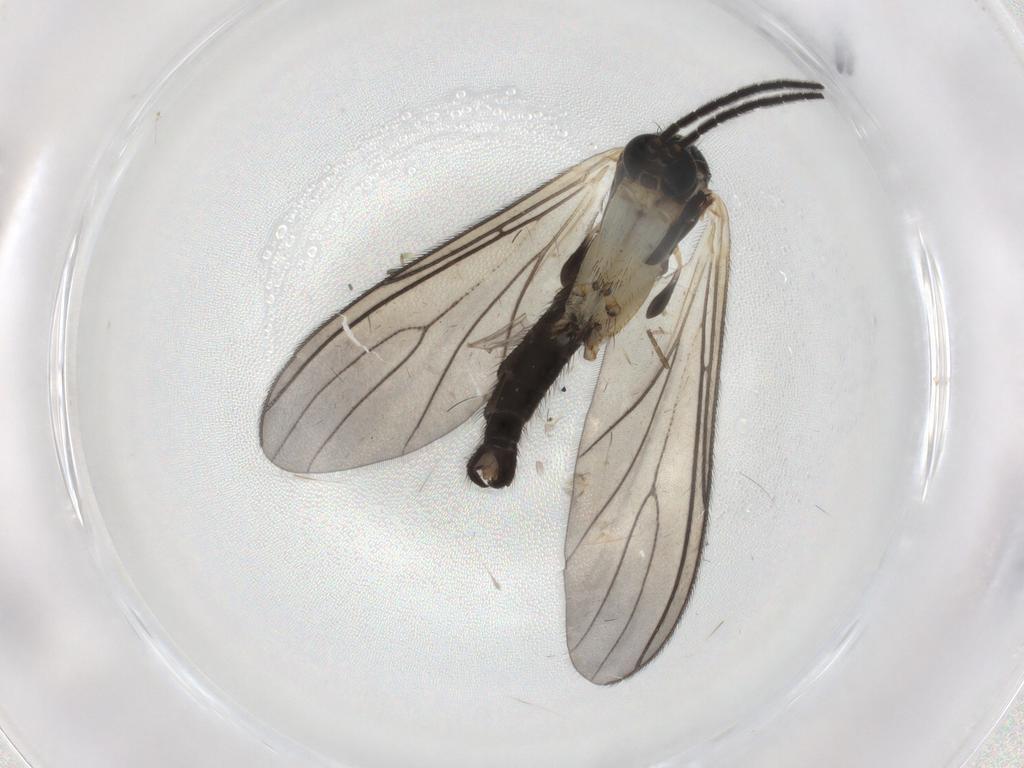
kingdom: Animalia
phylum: Arthropoda
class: Insecta
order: Diptera
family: Sciaridae
